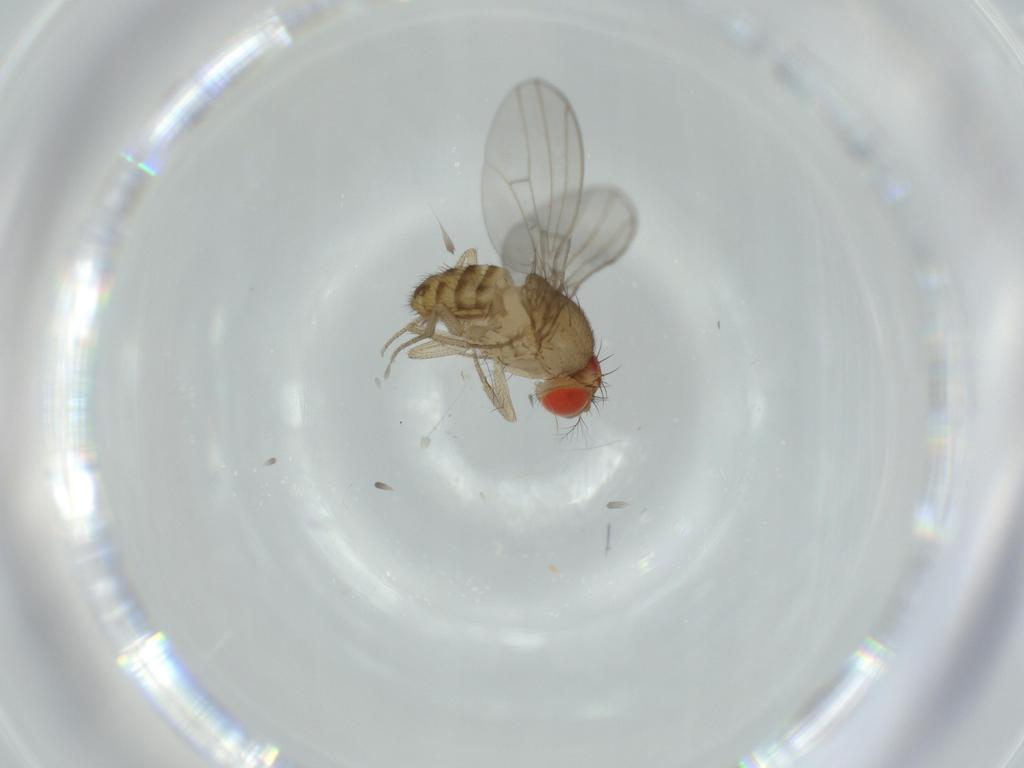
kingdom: Animalia
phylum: Arthropoda
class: Insecta
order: Diptera
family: Drosophilidae
